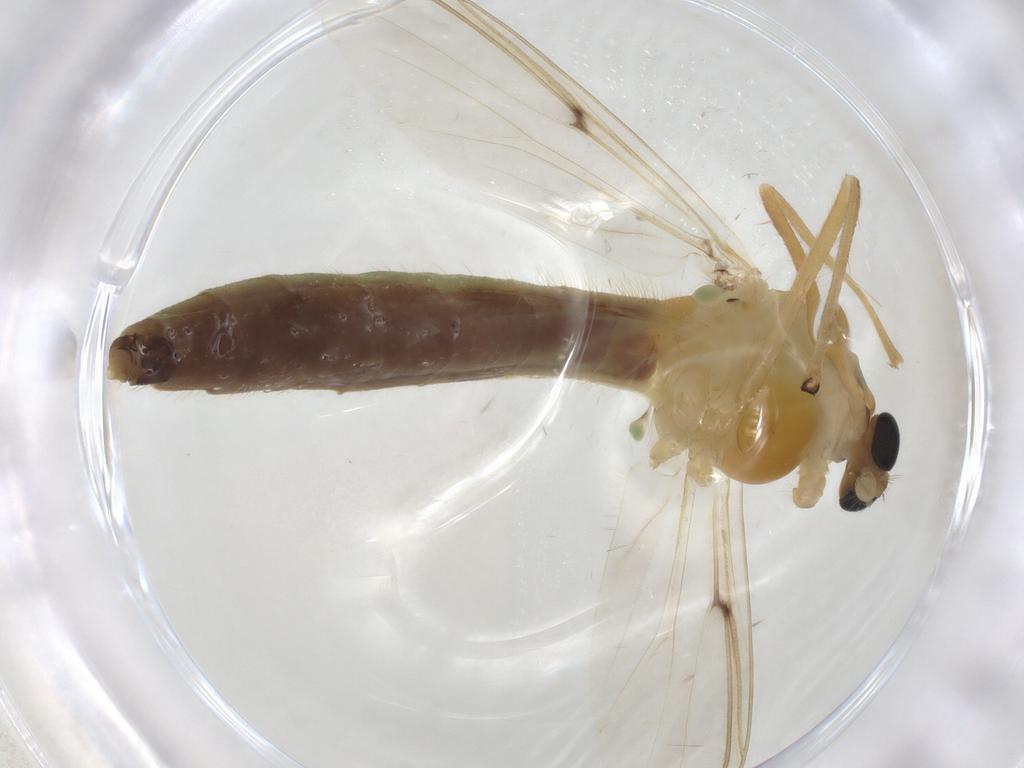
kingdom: Animalia
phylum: Arthropoda
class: Insecta
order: Diptera
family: Chironomidae
